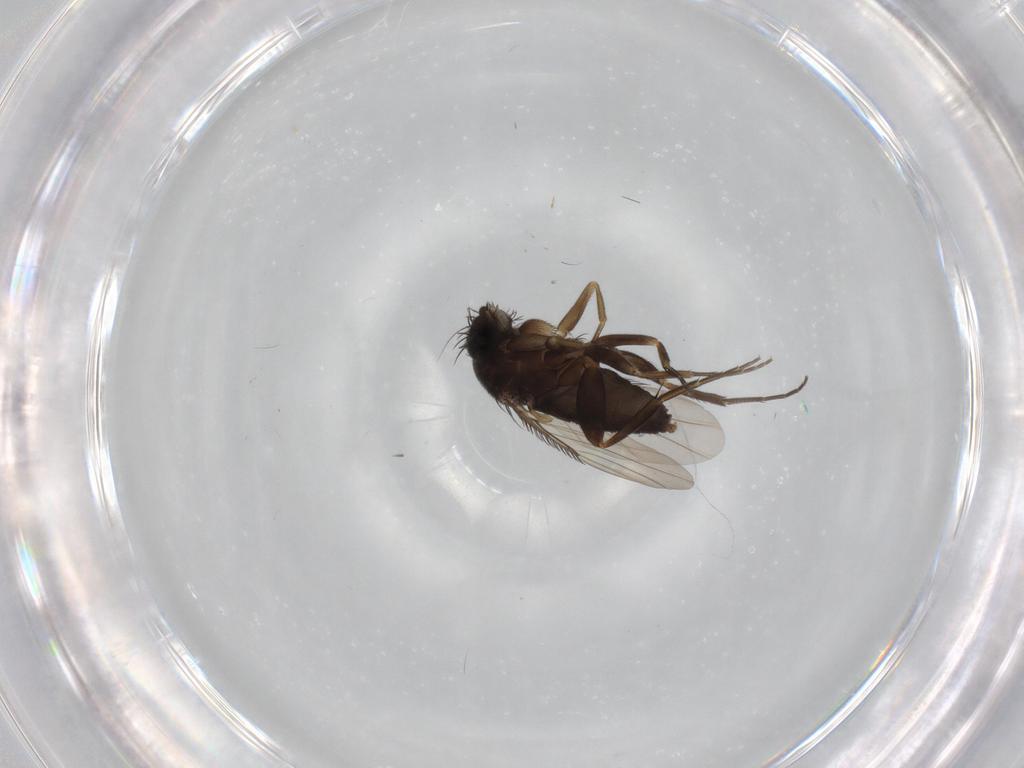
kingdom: Animalia
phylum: Arthropoda
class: Insecta
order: Diptera
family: Phoridae
